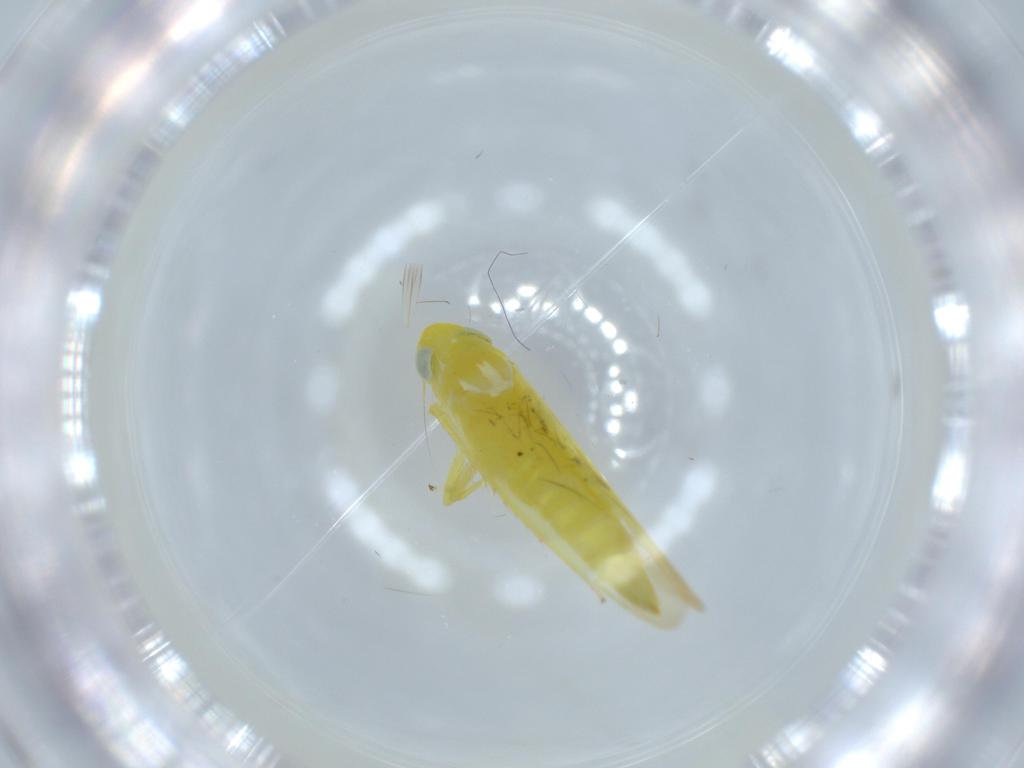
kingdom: Animalia
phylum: Arthropoda
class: Insecta
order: Hemiptera
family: Cicadellidae
